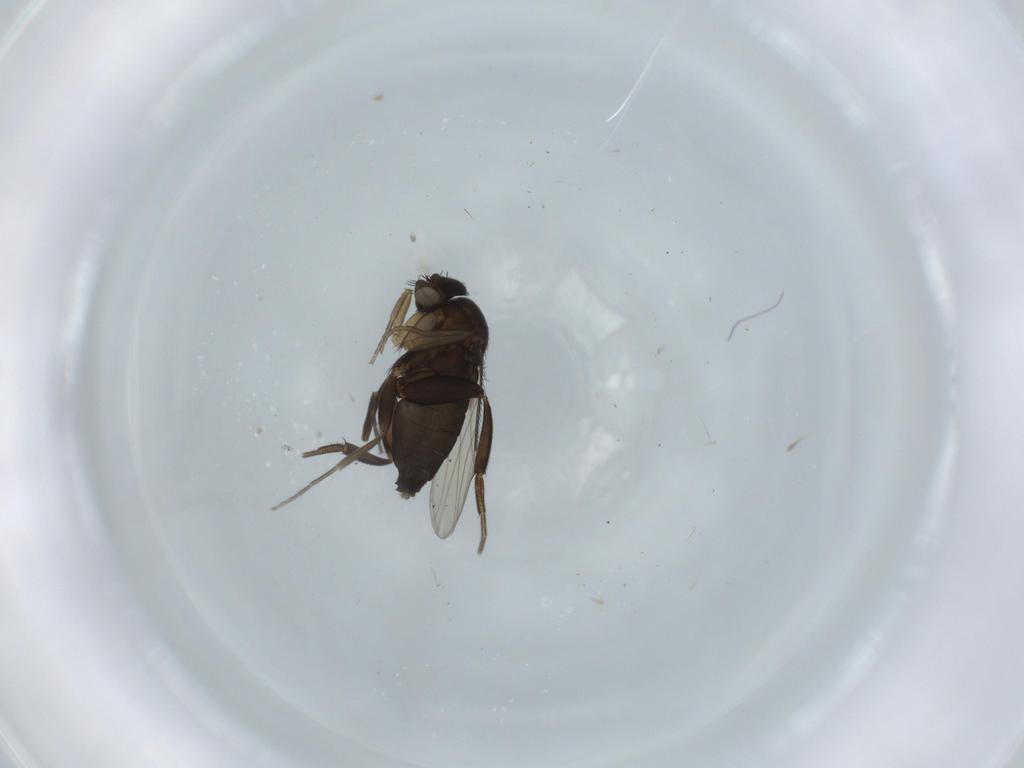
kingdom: Animalia
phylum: Arthropoda
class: Insecta
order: Diptera
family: Phoridae
